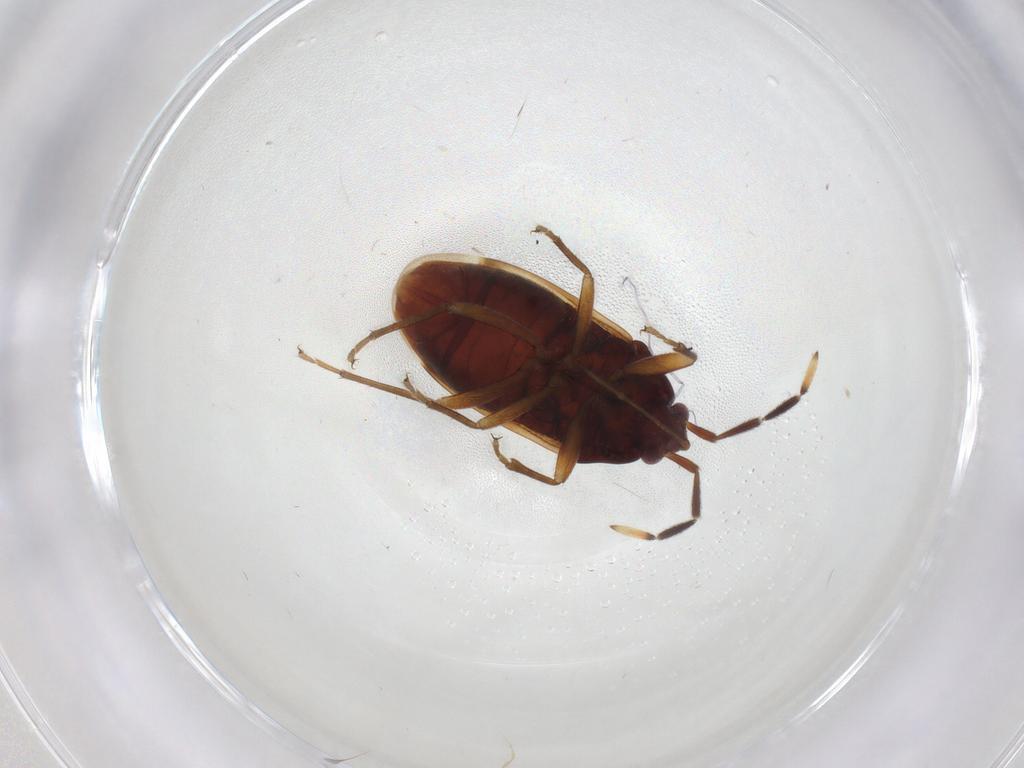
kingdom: Animalia
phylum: Arthropoda
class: Insecta
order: Hemiptera
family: Rhyparochromidae
